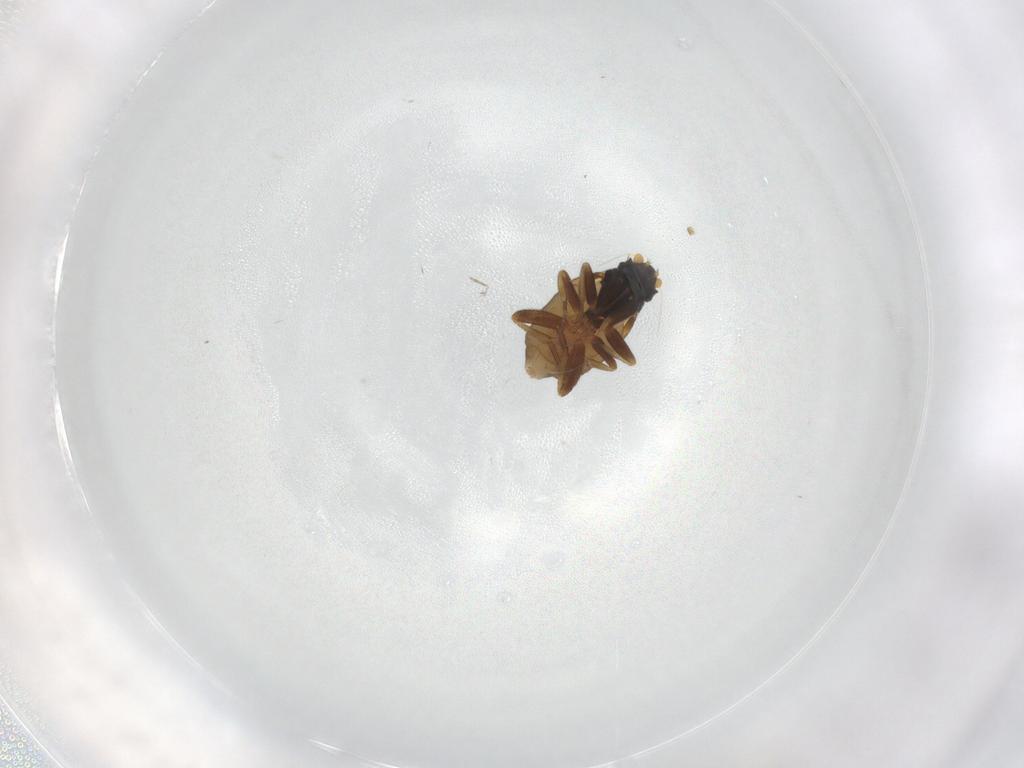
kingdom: Animalia
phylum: Arthropoda
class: Insecta
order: Diptera
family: Phoridae
